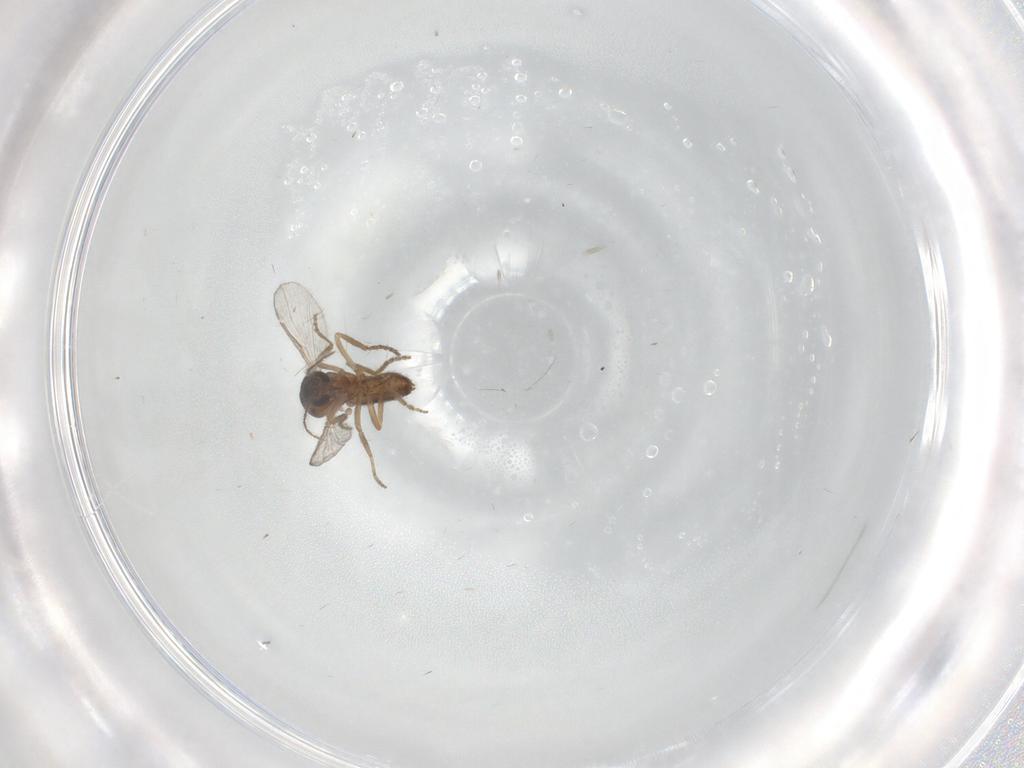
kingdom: Animalia
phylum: Arthropoda
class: Insecta
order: Diptera
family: Ceratopogonidae
